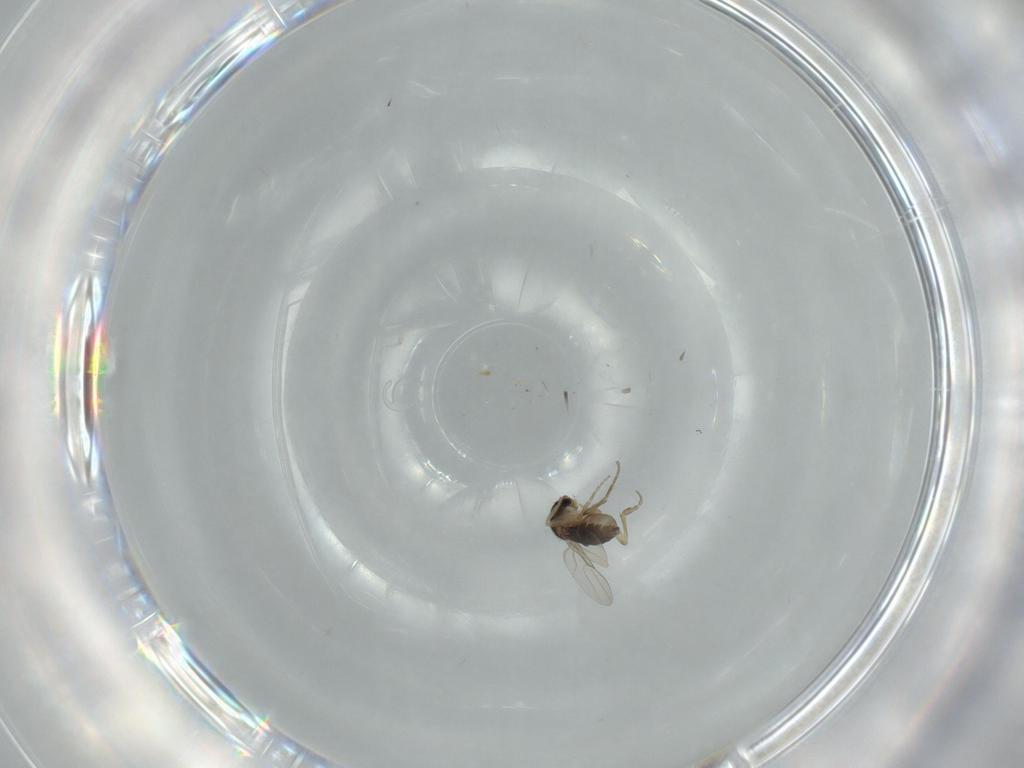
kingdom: Animalia
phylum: Arthropoda
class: Insecta
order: Diptera
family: Phoridae
